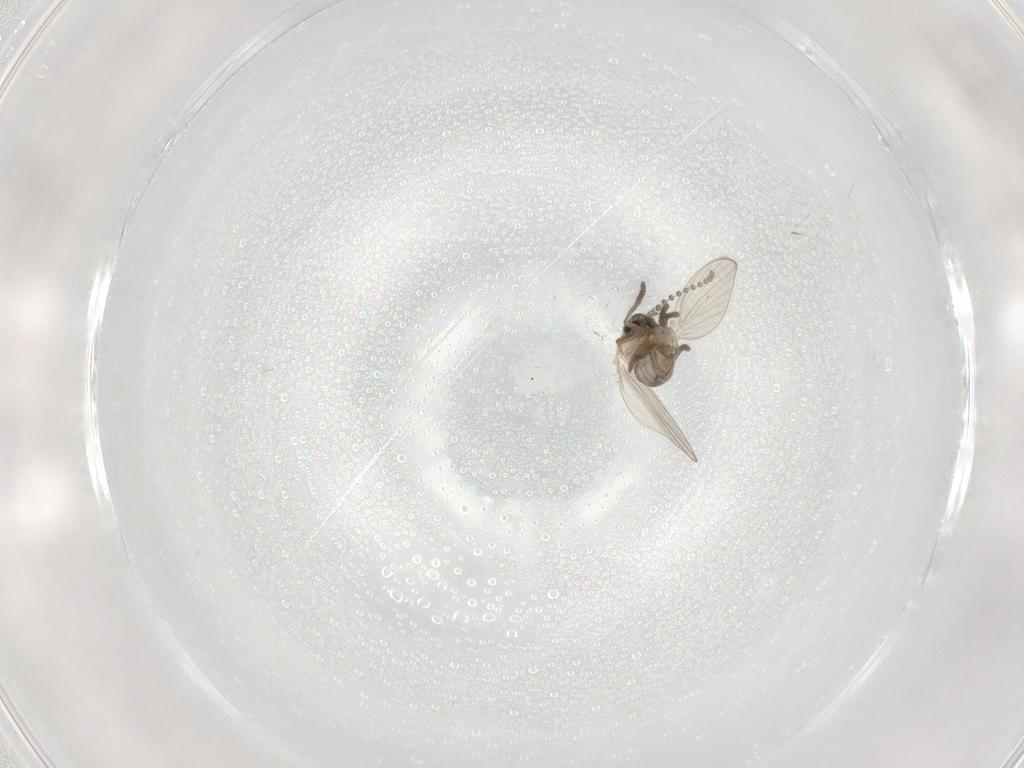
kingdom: Animalia
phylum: Arthropoda
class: Insecta
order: Diptera
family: Psychodidae
